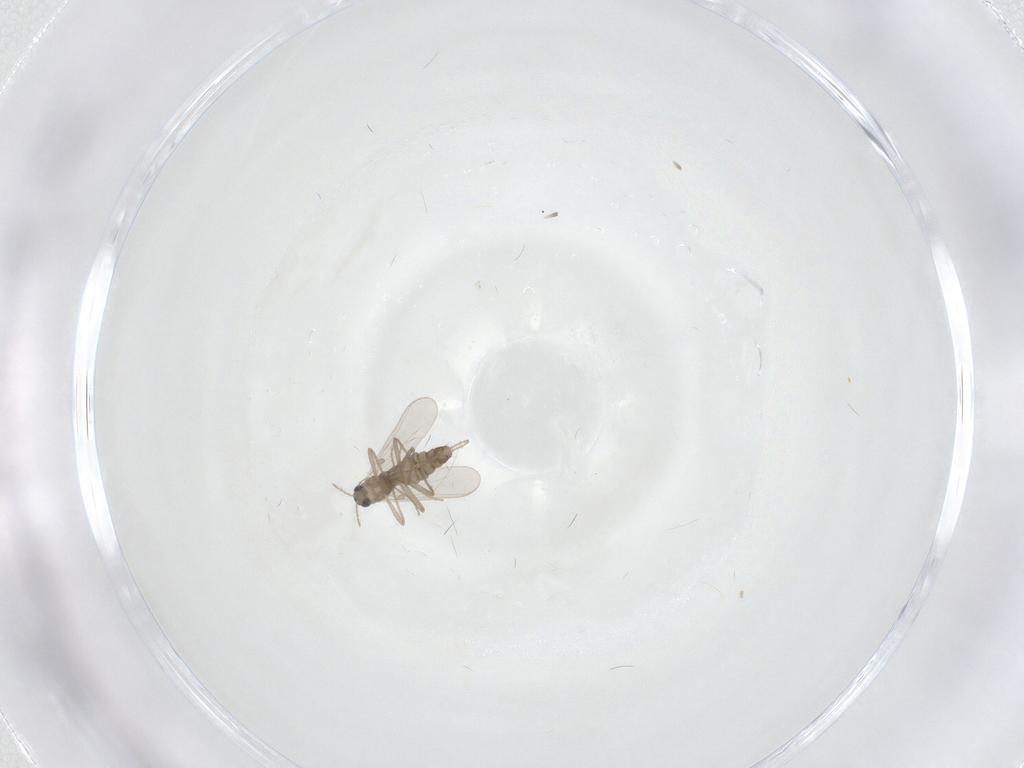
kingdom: Animalia
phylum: Arthropoda
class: Insecta
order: Diptera
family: Chironomidae
